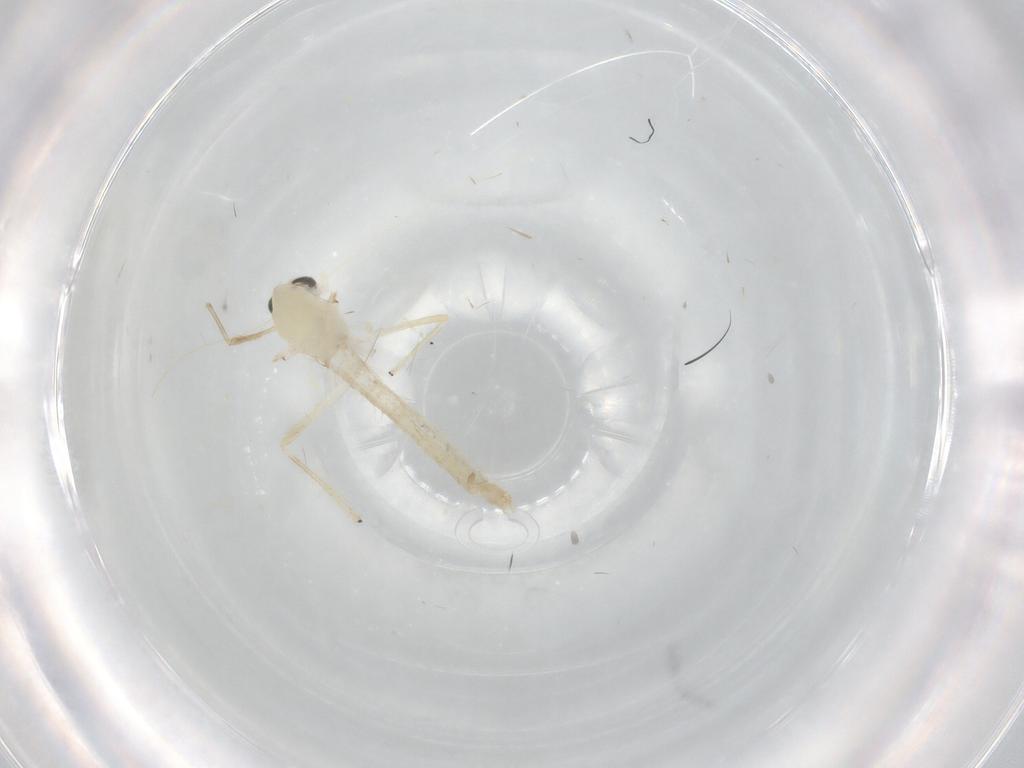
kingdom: Animalia
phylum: Arthropoda
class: Insecta
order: Diptera
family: Chironomidae
